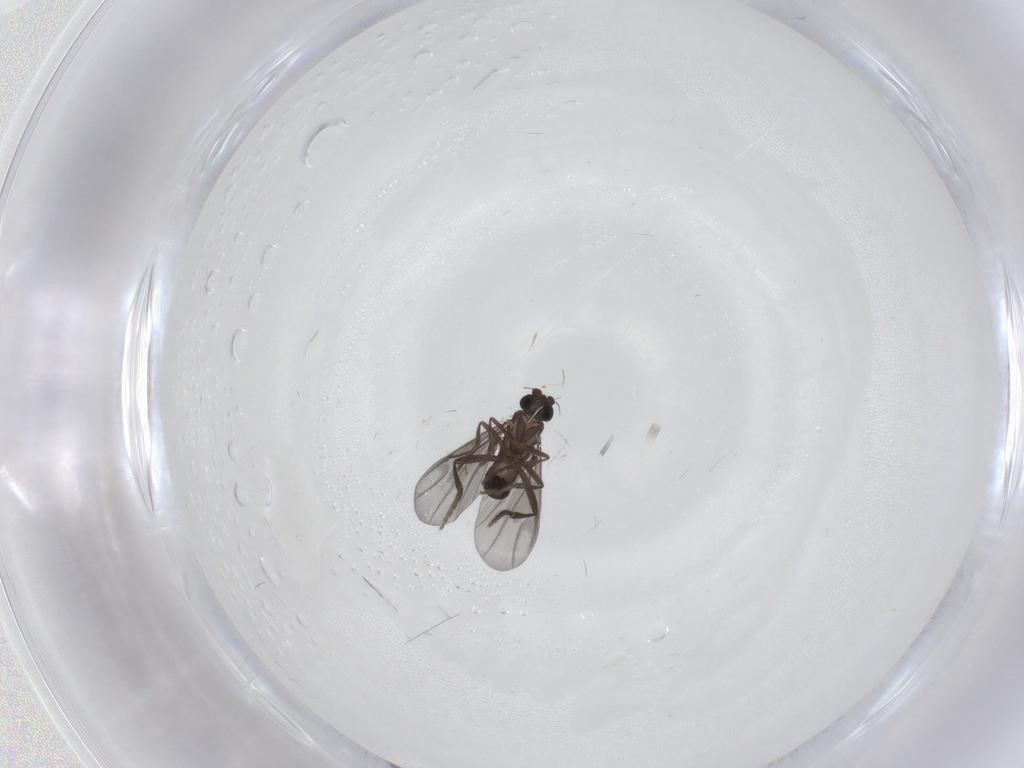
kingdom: Animalia
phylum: Arthropoda
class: Insecta
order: Diptera
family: Phoridae
